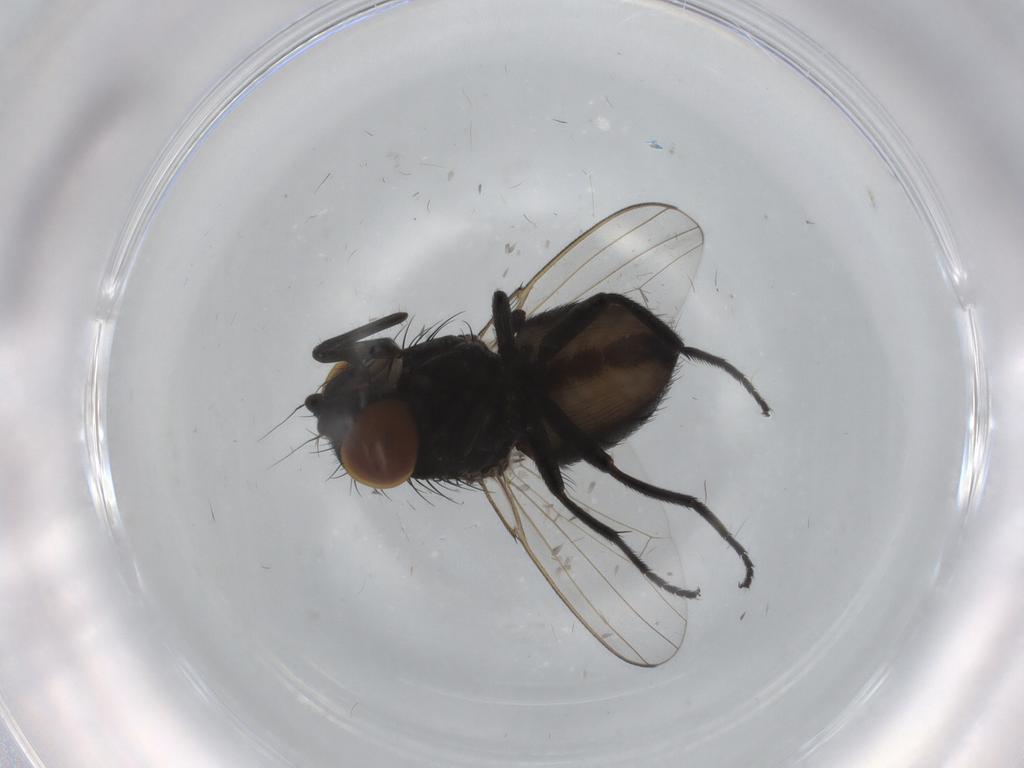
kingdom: Animalia
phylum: Arthropoda
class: Insecta
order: Diptera
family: Milichiidae
